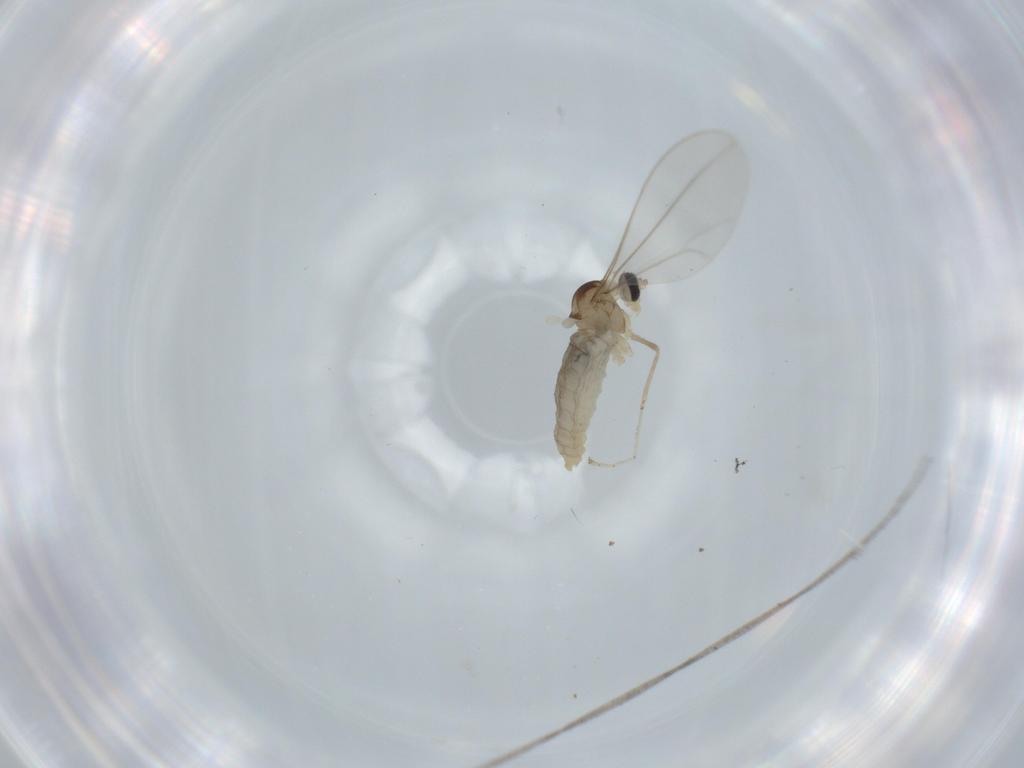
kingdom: Animalia
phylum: Arthropoda
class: Insecta
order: Diptera
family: Cecidomyiidae
